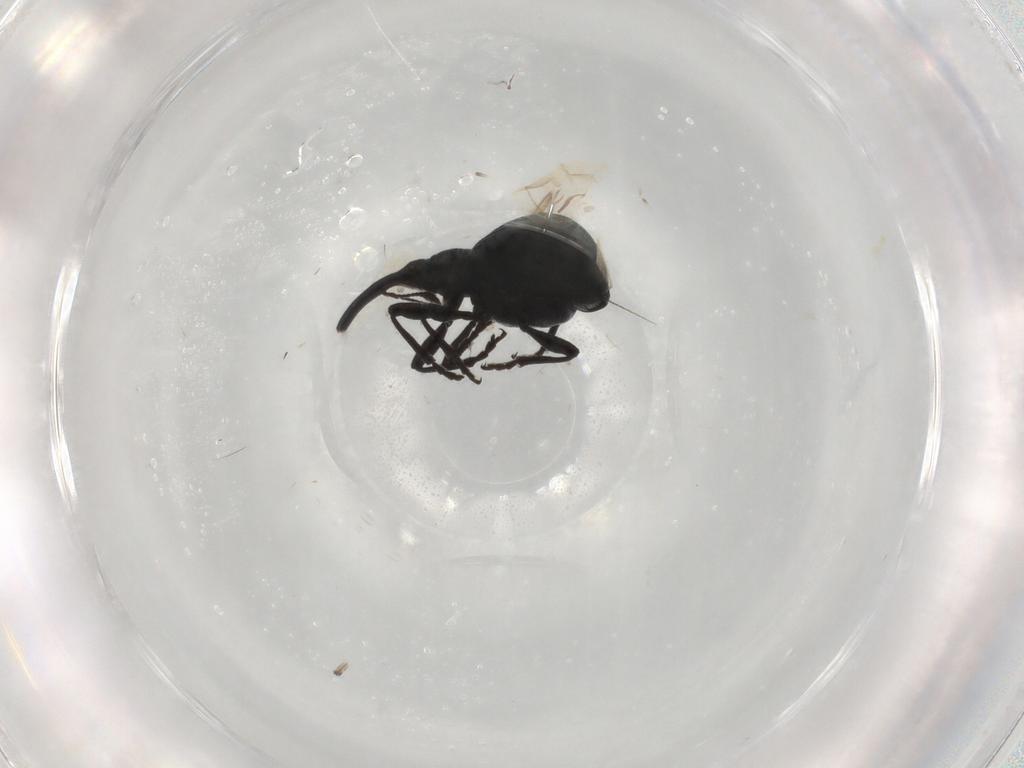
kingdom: Animalia
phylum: Arthropoda
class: Insecta
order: Coleoptera
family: Brentidae
